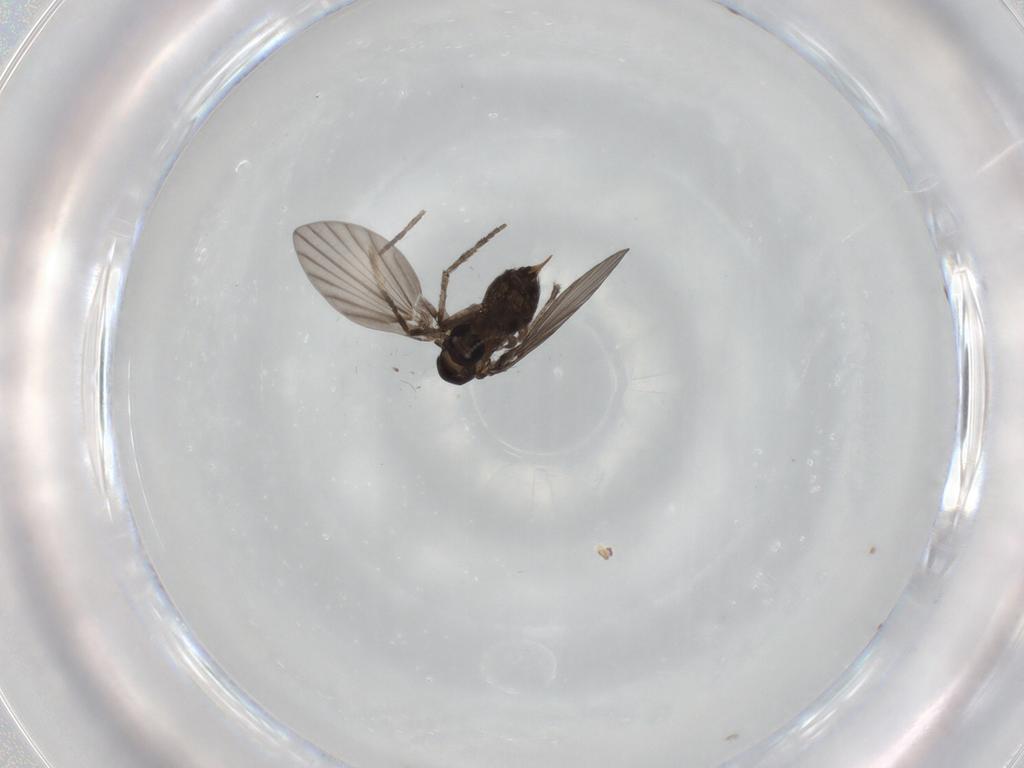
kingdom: Animalia
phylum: Arthropoda
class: Insecta
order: Diptera
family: Psychodidae
